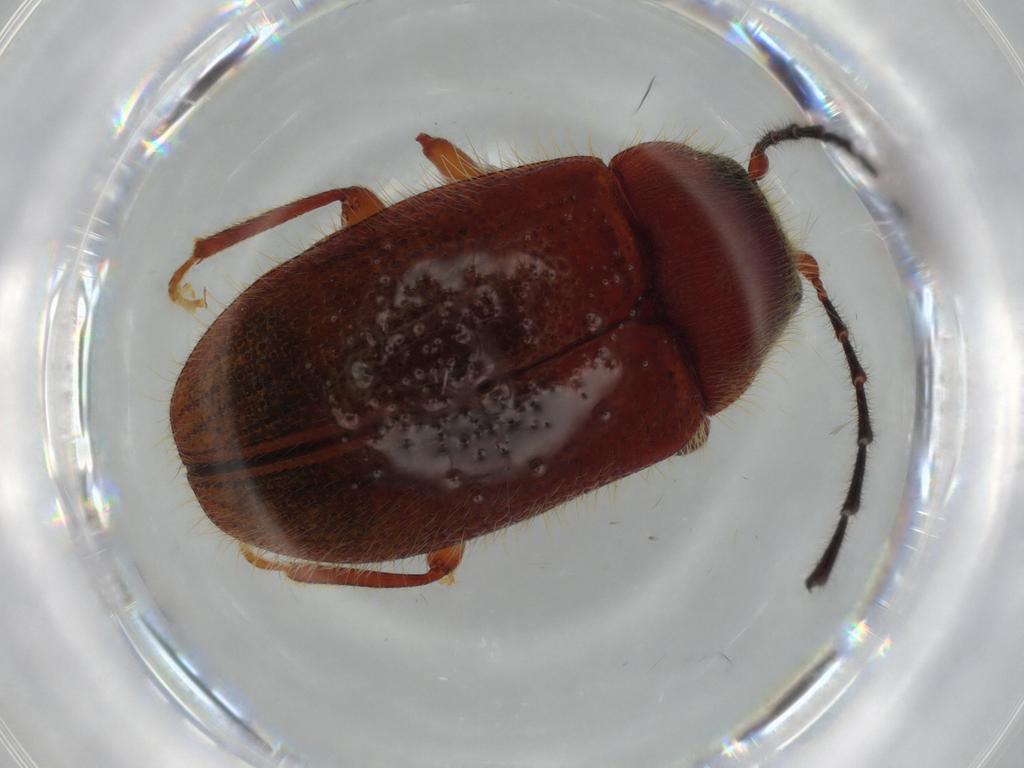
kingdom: Animalia
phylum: Arthropoda
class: Insecta
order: Coleoptera
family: Artematopodidae
